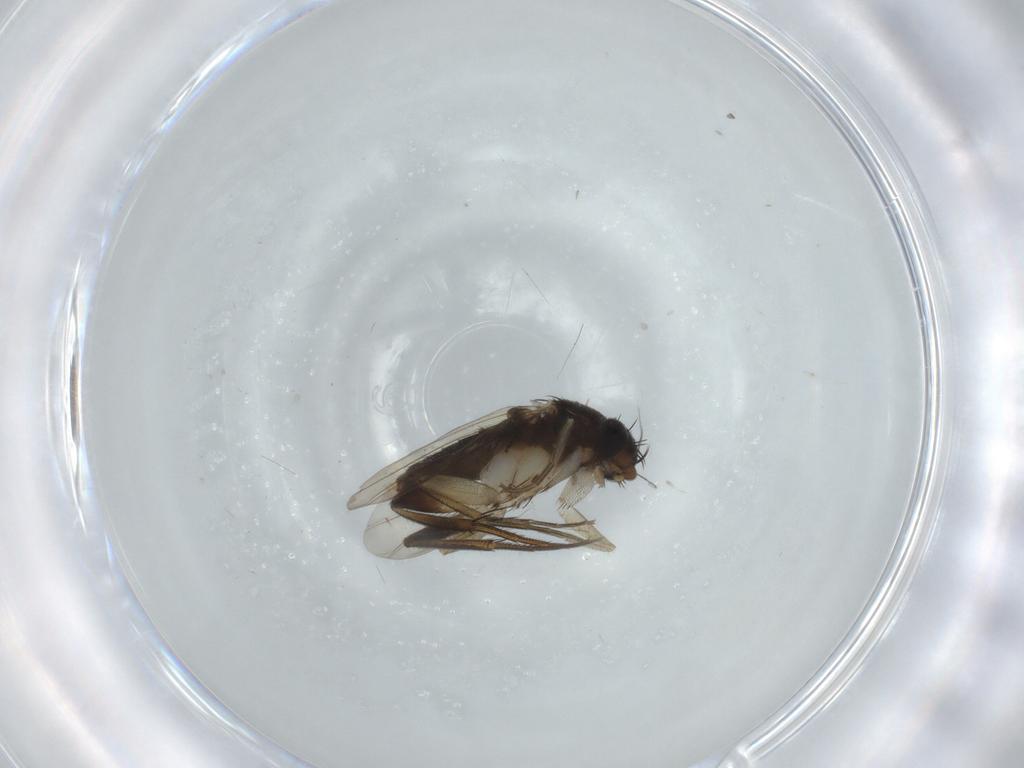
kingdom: Animalia
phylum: Arthropoda
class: Insecta
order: Diptera
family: Phoridae
